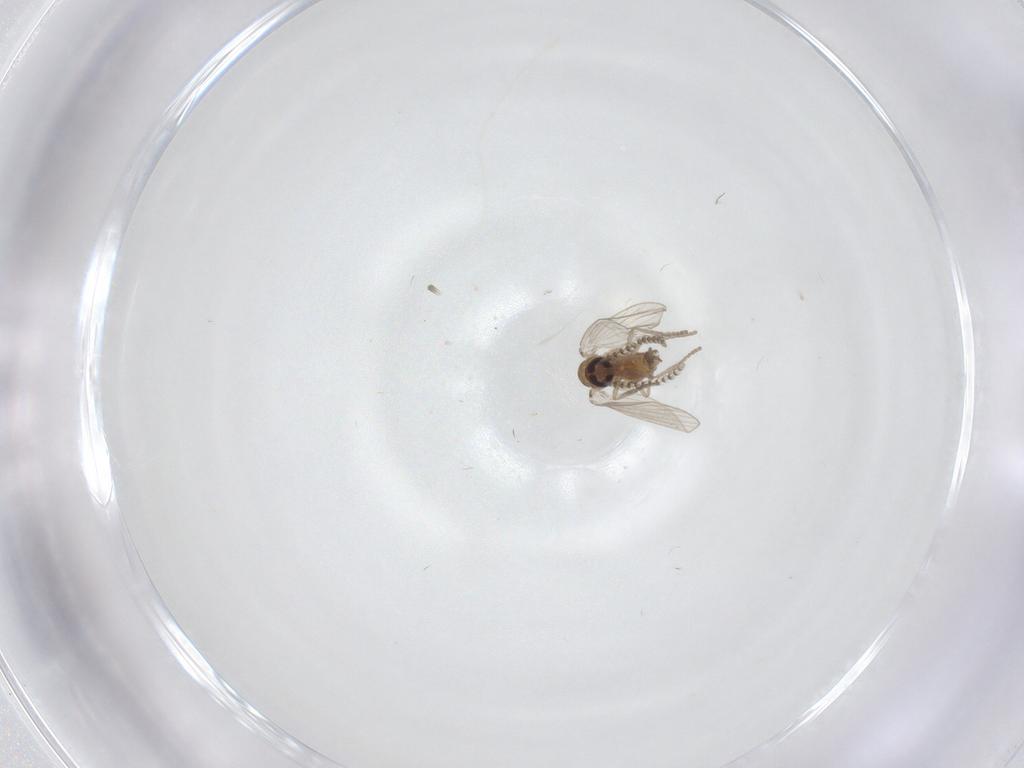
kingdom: Animalia
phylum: Arthropoda
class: Insecta
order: Diptera
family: Psychodidae
